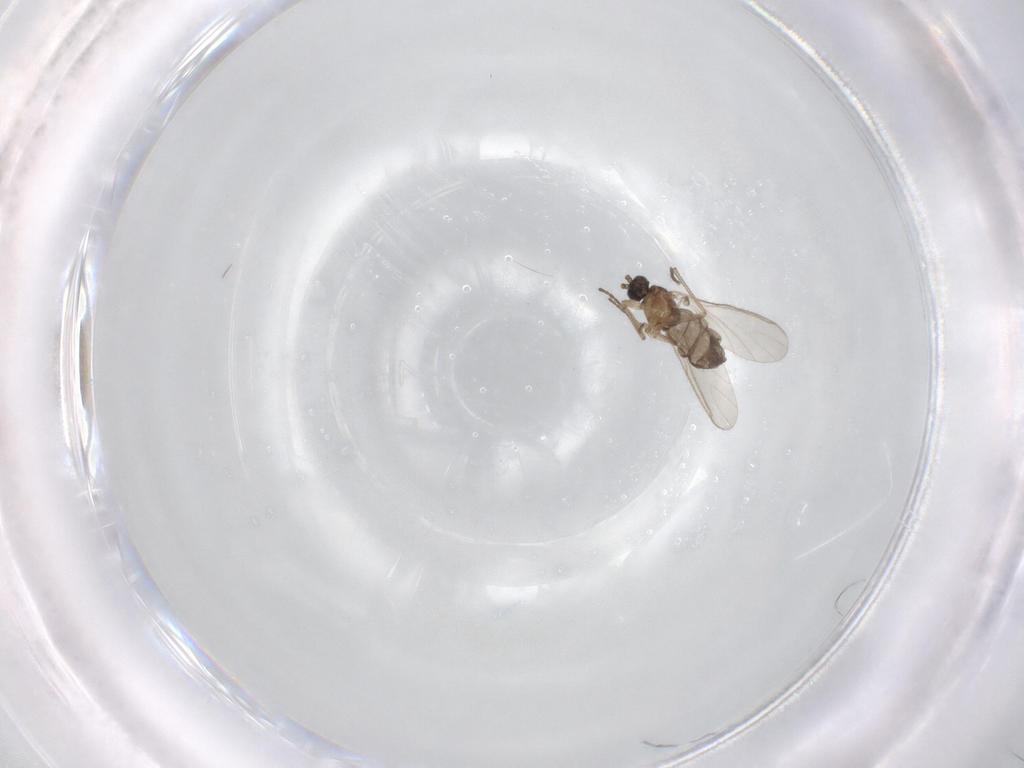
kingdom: Animalia
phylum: Arthropoda
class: Insecta
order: Diptera
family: Sciaridae
